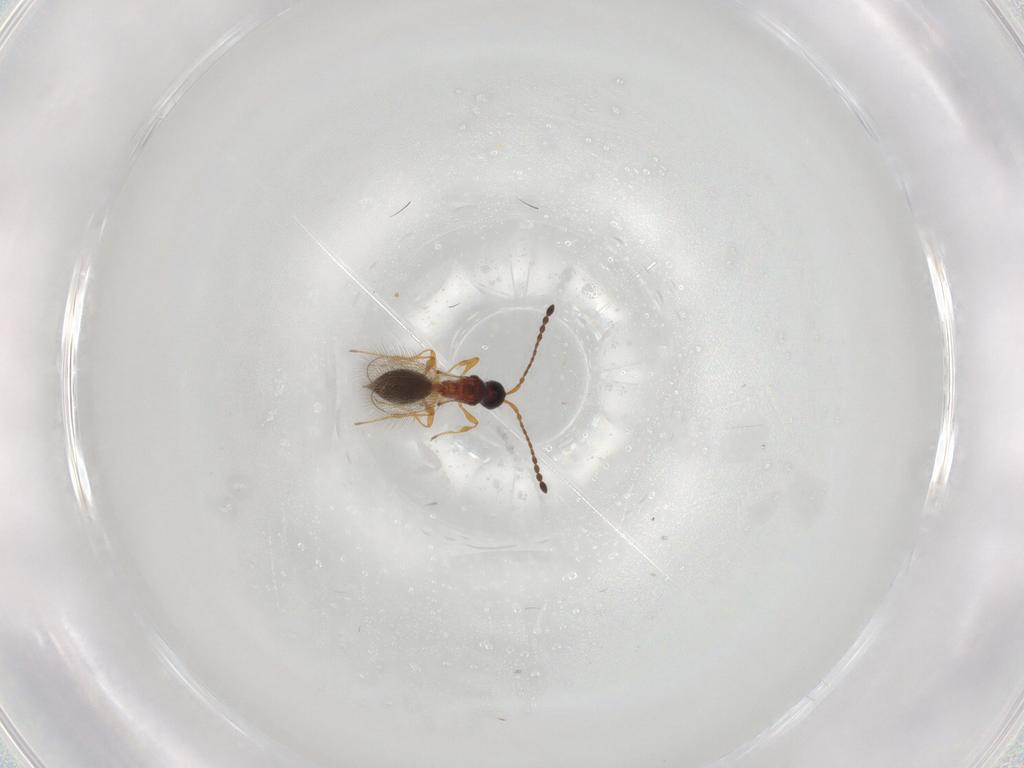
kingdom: Animalia
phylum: Arthropoda
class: Insecta
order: Hymenoptera
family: Diapriidae
